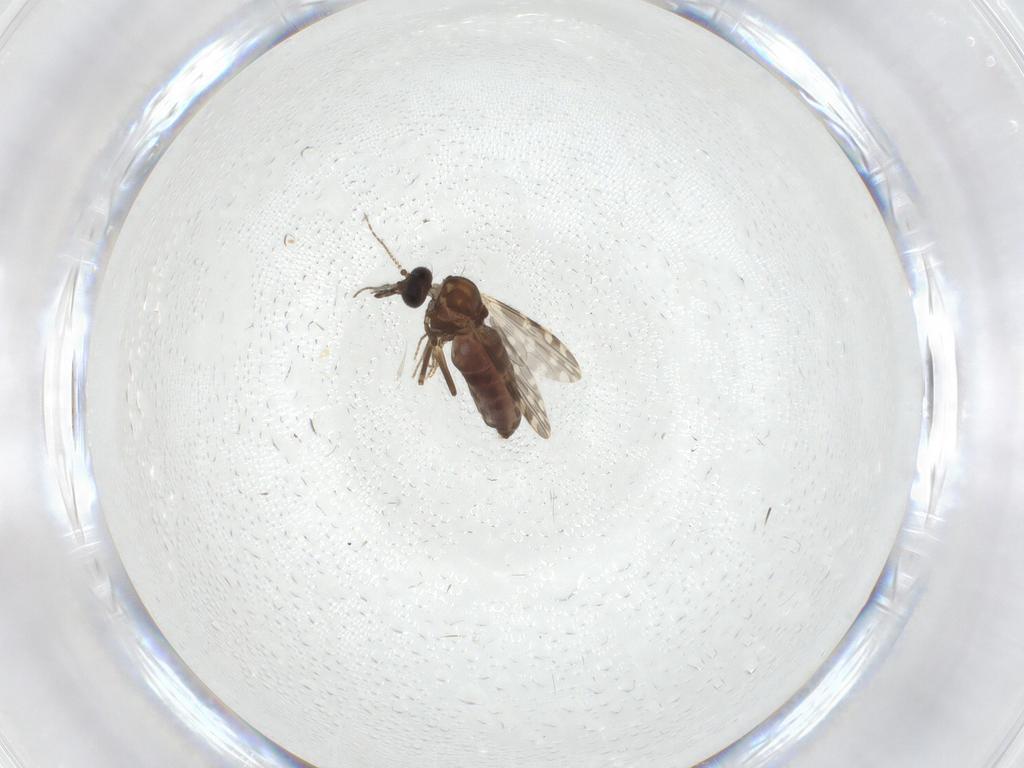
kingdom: Animalia
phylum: Arthropoda
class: Insecta
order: Diptera
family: Ceratopogonidae
